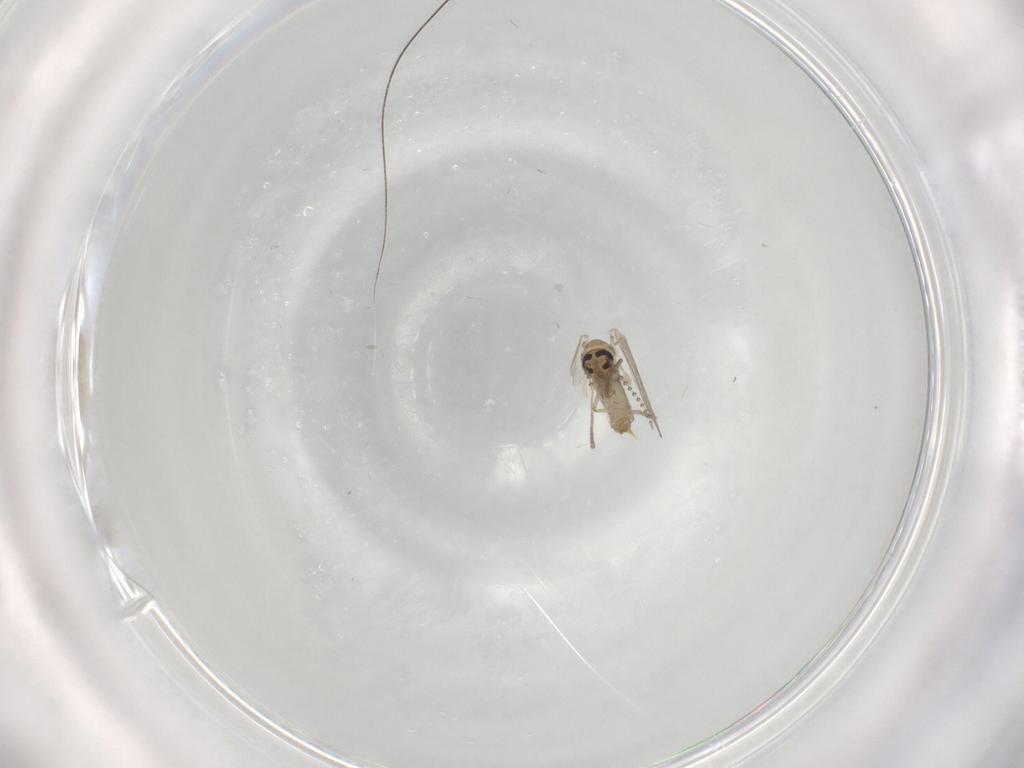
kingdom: Animalia
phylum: Arthropoda
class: Insecta
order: Diptera
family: Psychodidae
